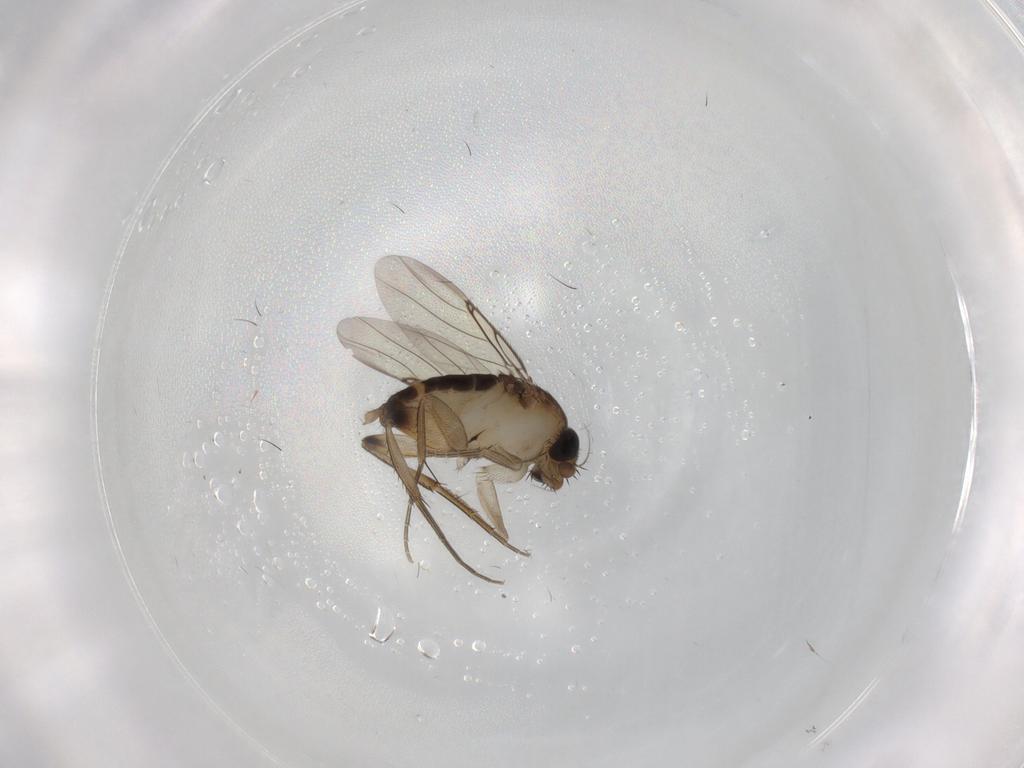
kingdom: Animalia
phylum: Arthropoda
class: Insecta
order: Diptera
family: Phoridae
